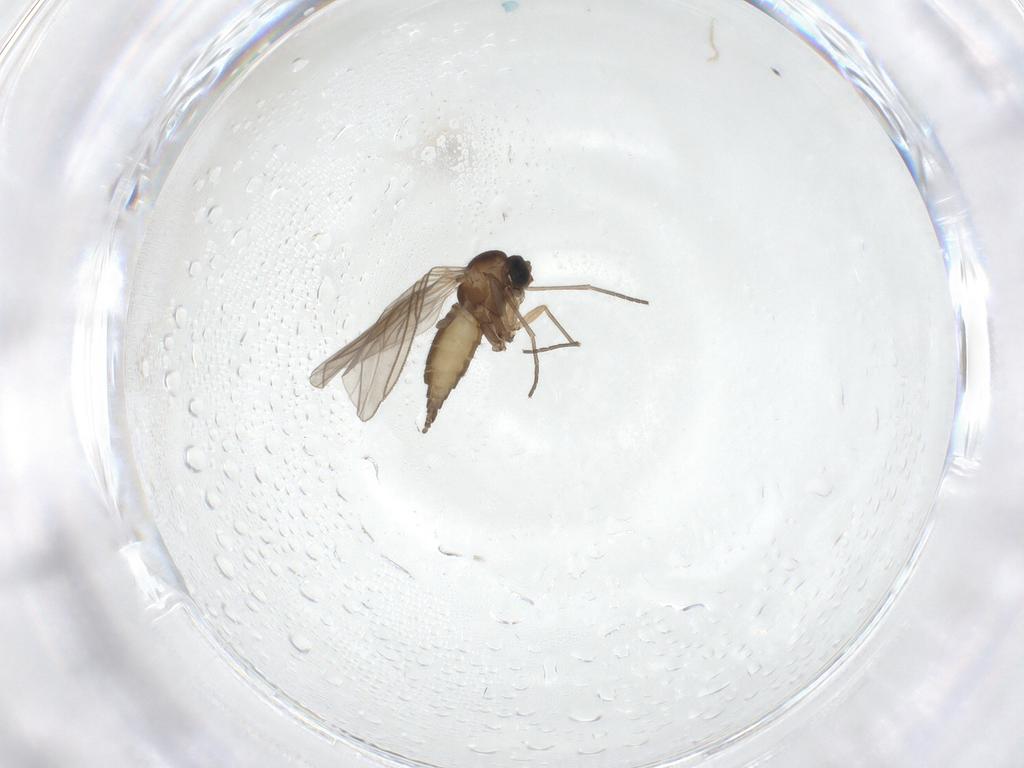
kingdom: Animalia
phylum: Arthropoda
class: Insecta
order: Diptera
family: Sciaridae
